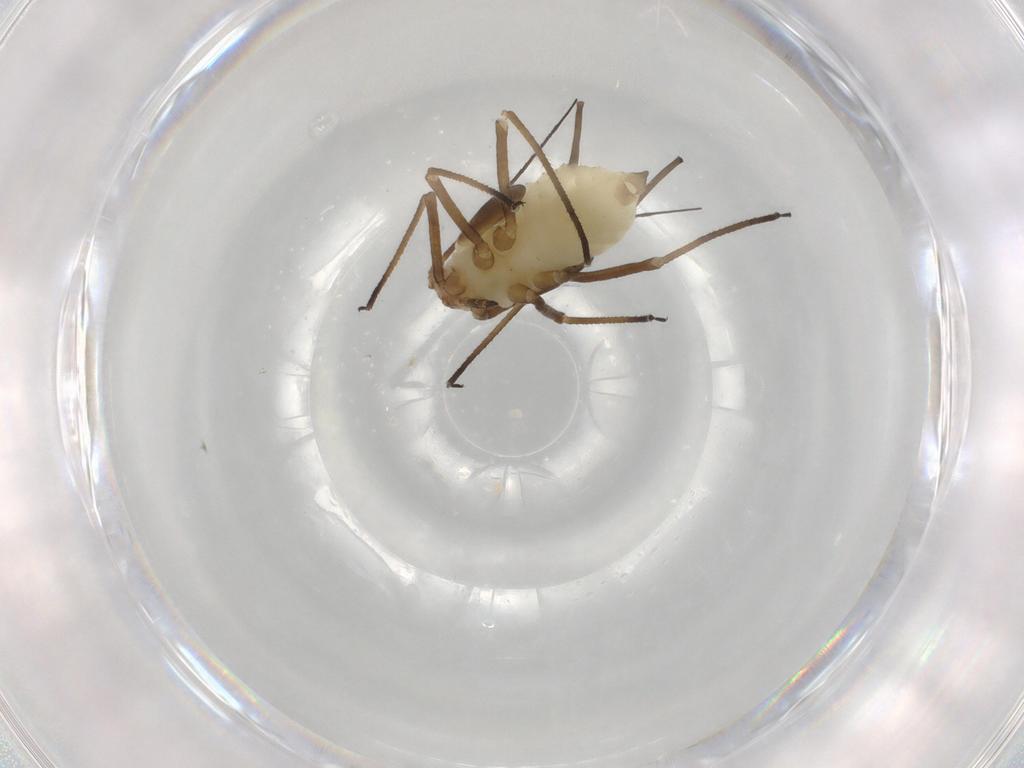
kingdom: Animalia
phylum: Arthropoda
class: Insecta
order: Hemiptera
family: Aphididae
